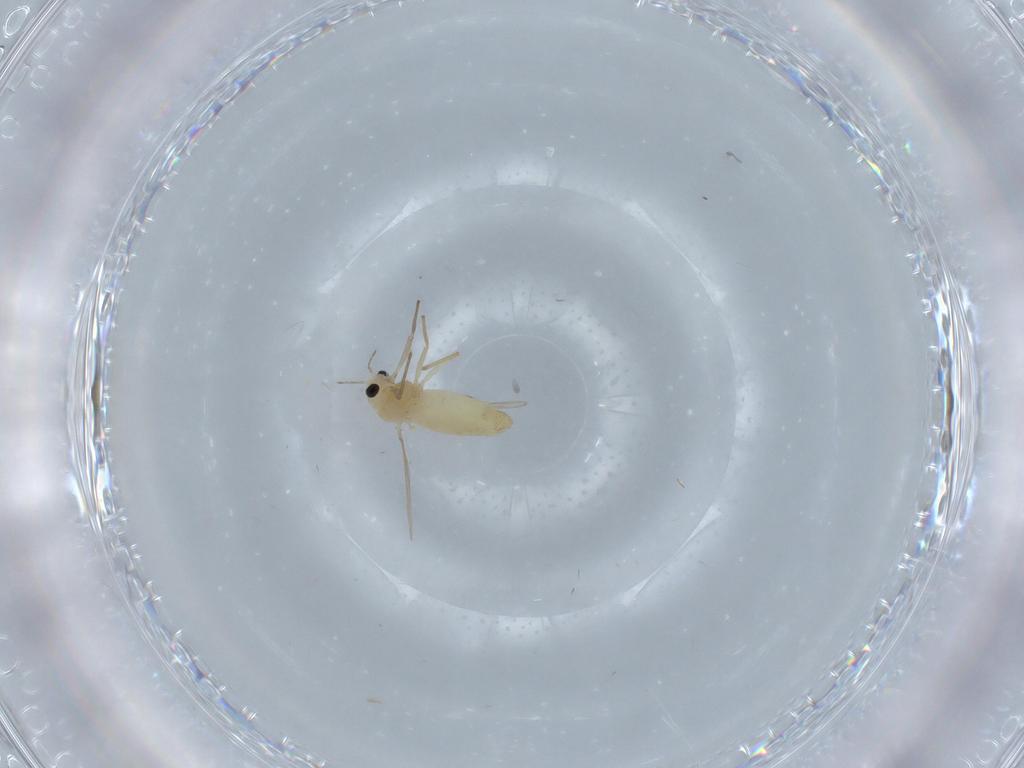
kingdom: Animalia
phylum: Arthropoda
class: Insecta
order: Diptera
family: Phoridae
